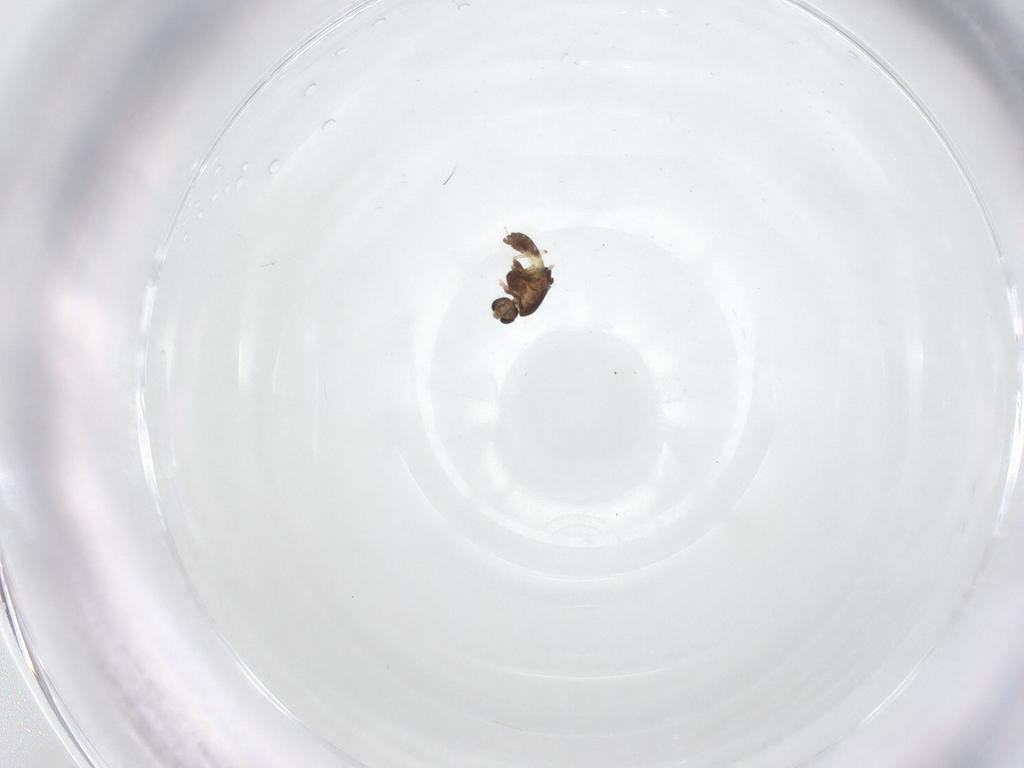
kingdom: Animalia
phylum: Arthropoda
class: Insecta
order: Diptera
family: Chironomidae
